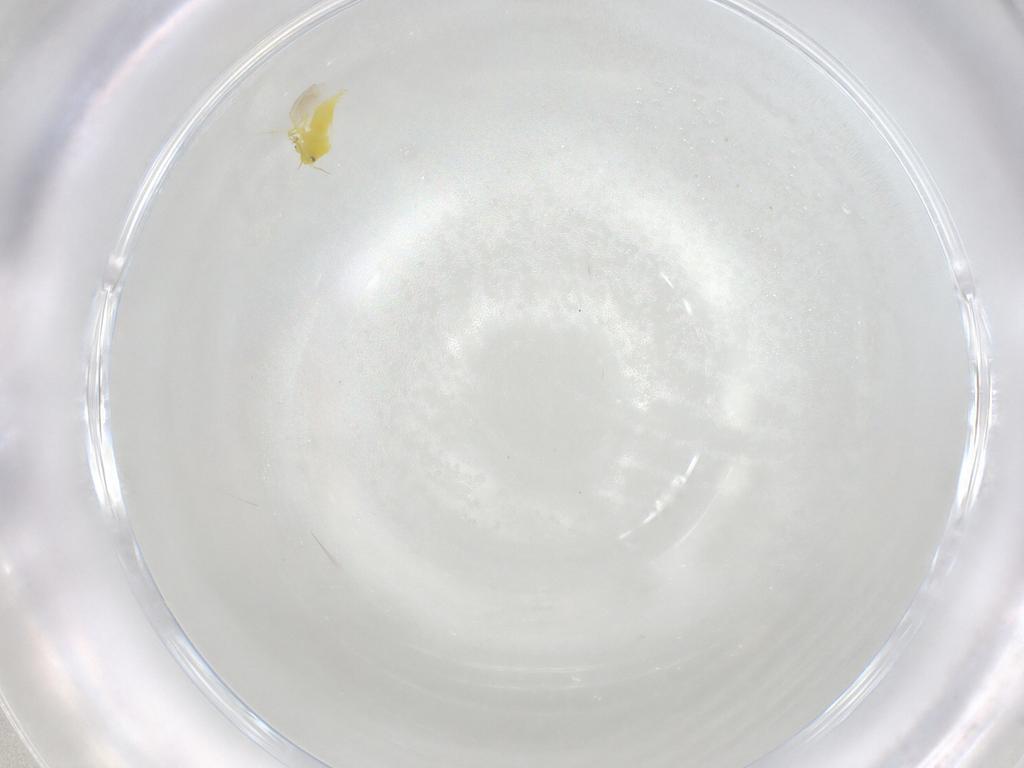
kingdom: Animalia
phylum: Arthropoda
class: Insecta
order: Hemiptera
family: Aleyrodidae
